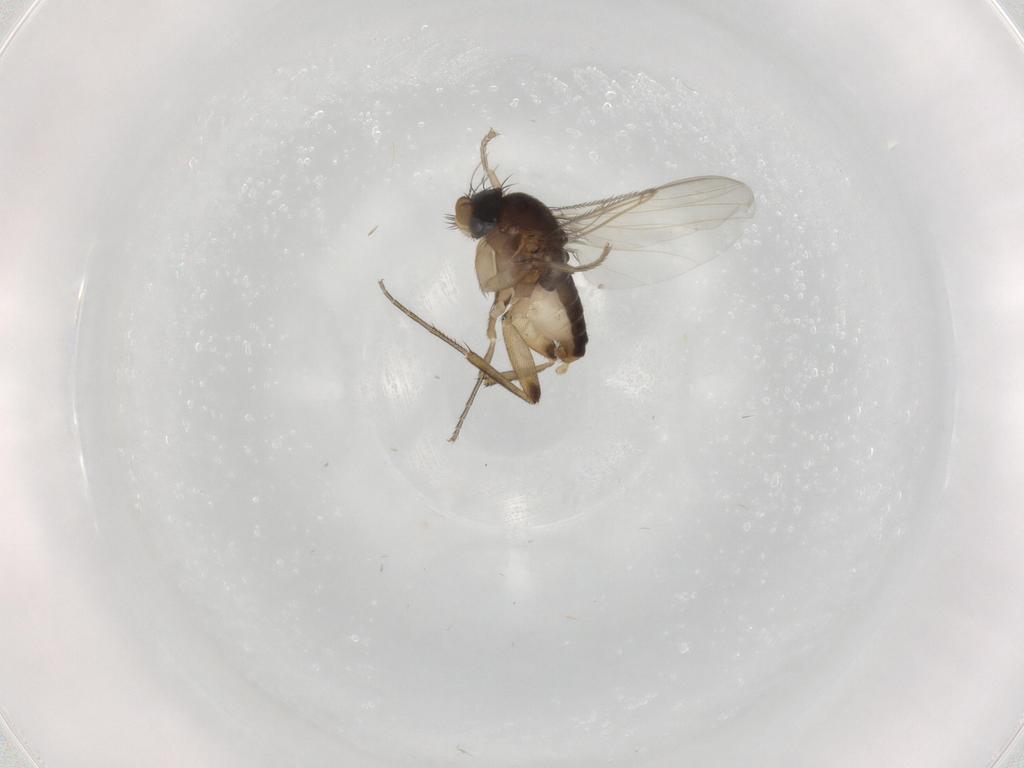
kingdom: Animalia
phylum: Arthropoda
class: Insecta
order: Diptera
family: Phoridae
